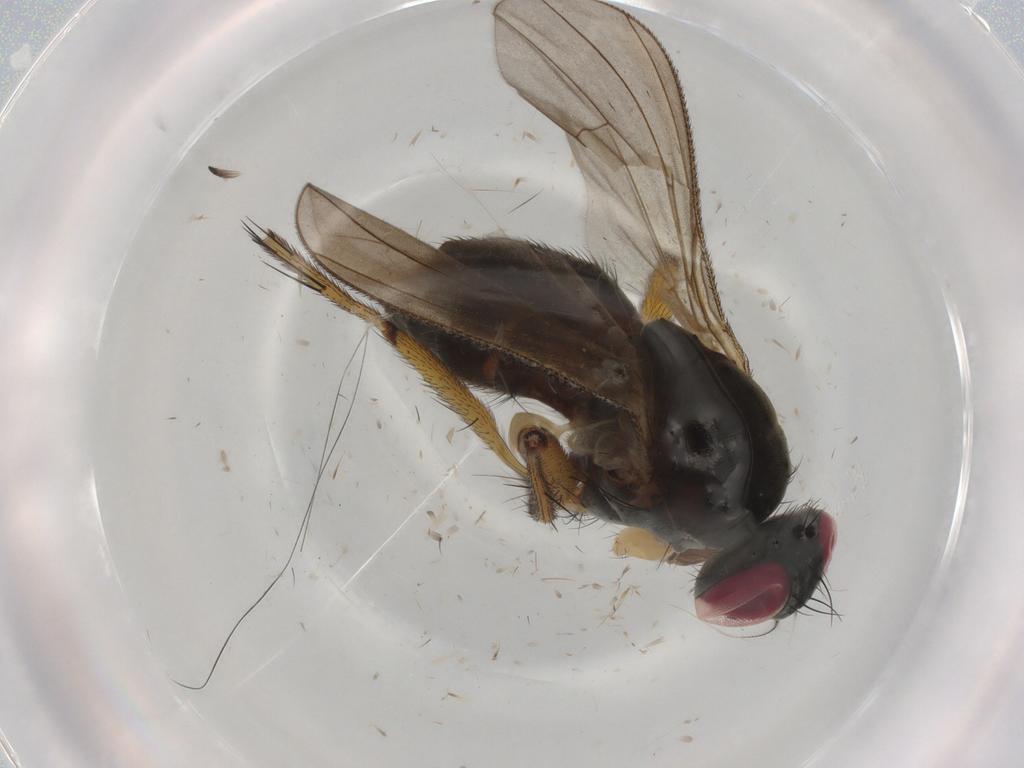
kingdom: Animalia
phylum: Arthropoda
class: Insecta
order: Diptera
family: Muscidae
